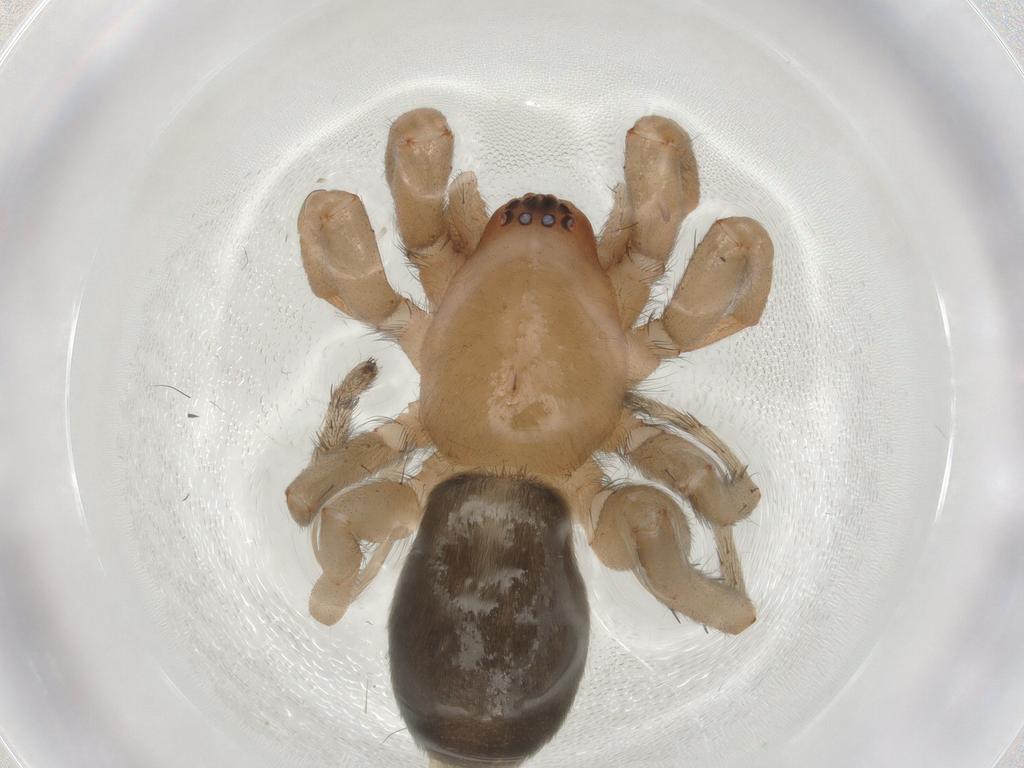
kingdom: Animalia
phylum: Arthropoda
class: Arachnida
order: Araneae
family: Dictynidae
